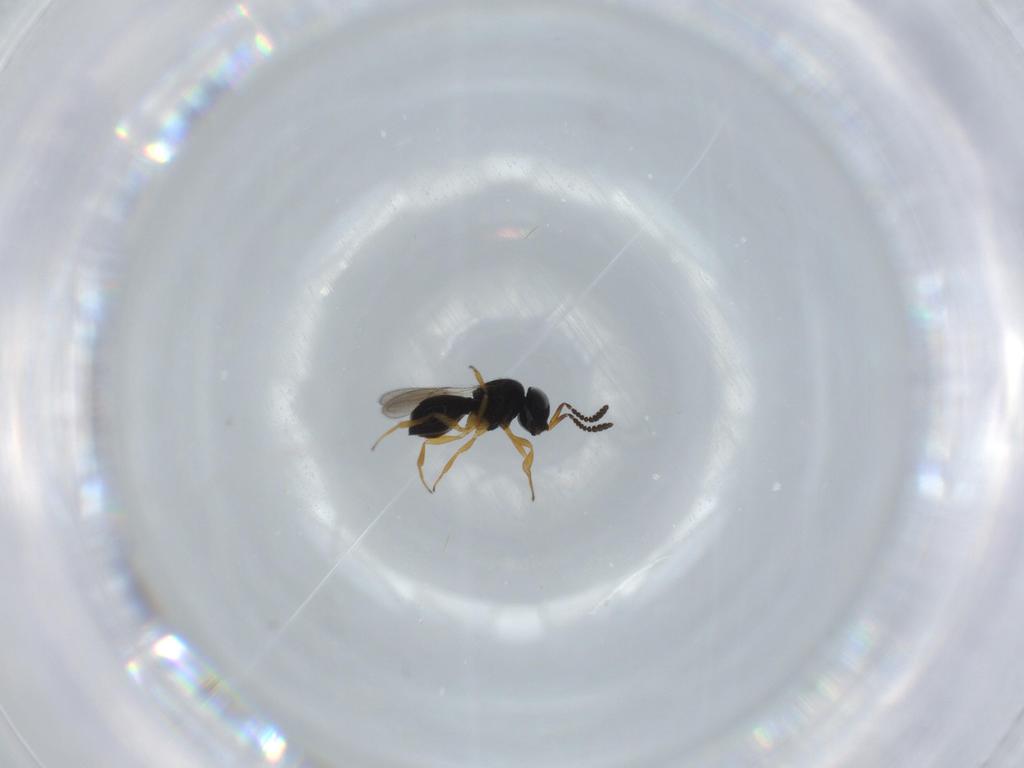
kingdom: Animalia
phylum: Arthropoda
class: Insecta
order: Hymenoptera
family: Scelionidae
